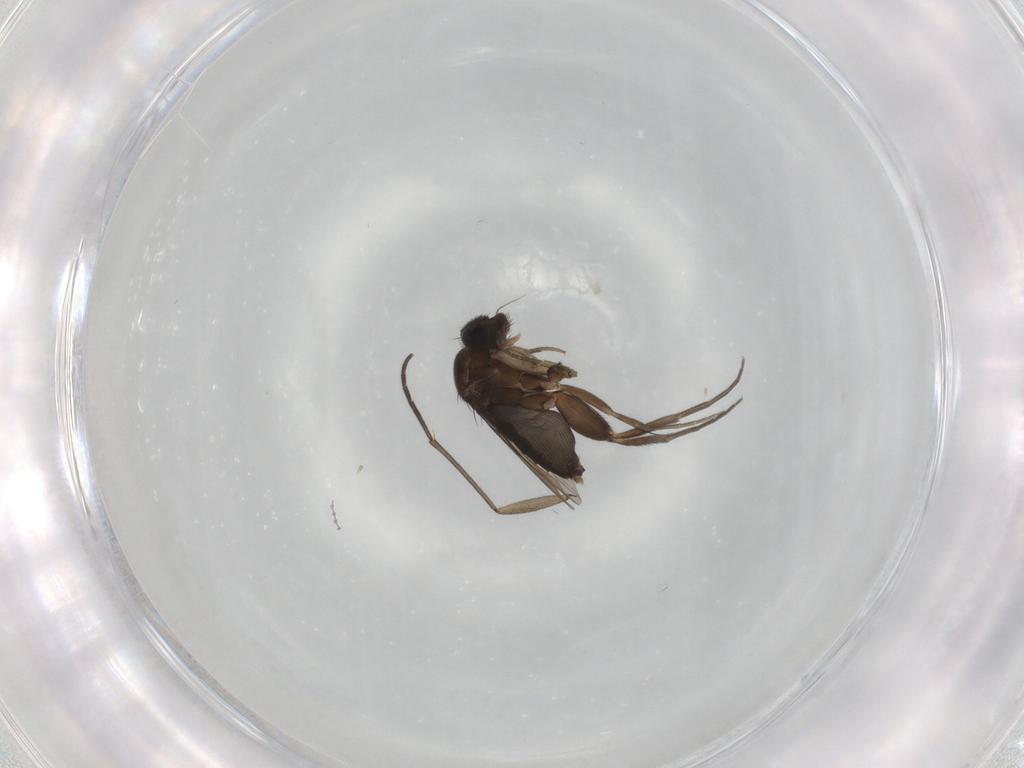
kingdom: Animalia
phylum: Arthropoda
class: Insecta
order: Diptera
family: Phoridae
